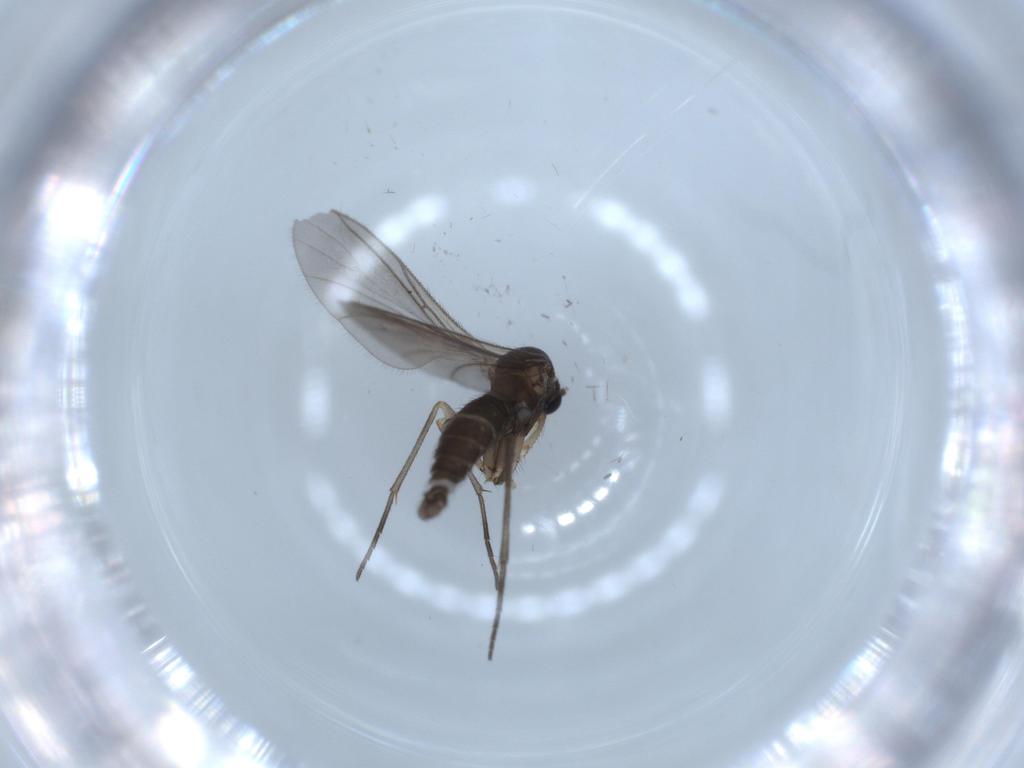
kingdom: Animalia
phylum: Arthropoda
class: Insecta
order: Diptera
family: Sciaridae
